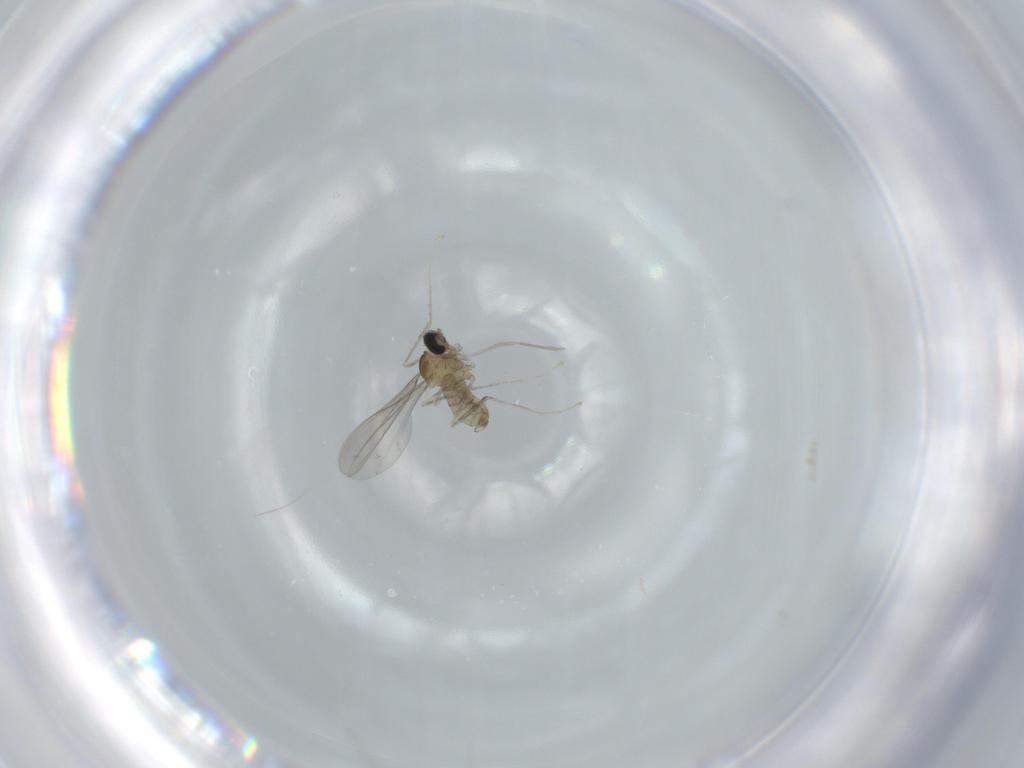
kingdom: Animalia
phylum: Arthropoda
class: Insecta
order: Diptera
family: Cecidomyiidae
